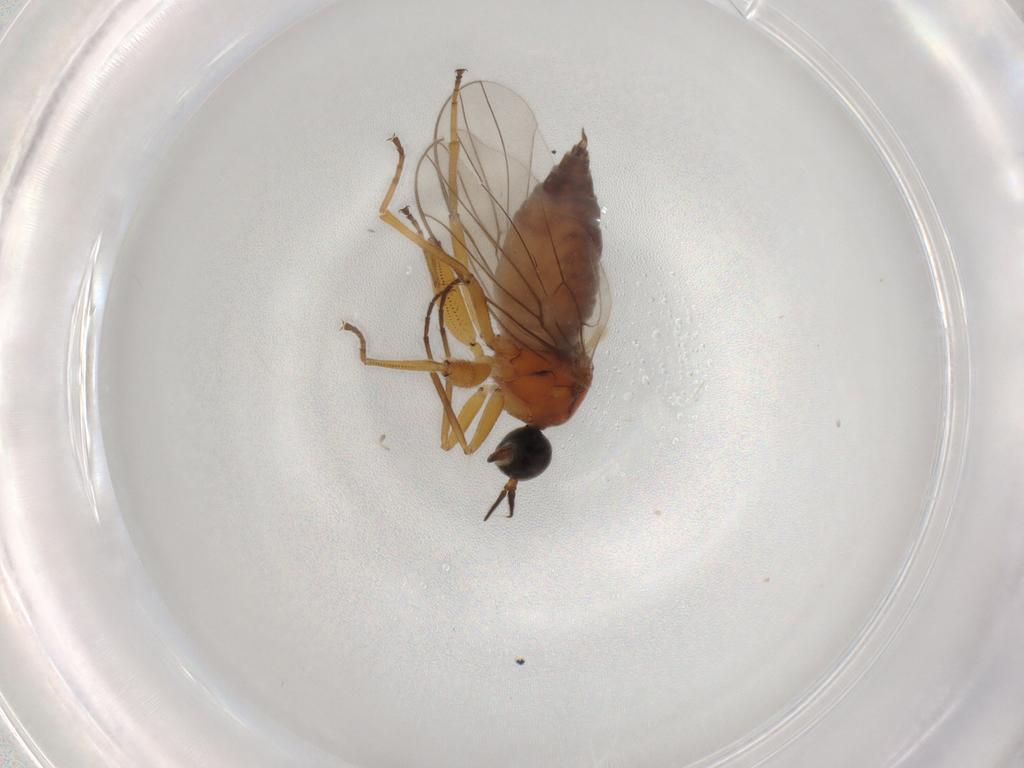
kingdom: Animalia
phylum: Arthropoda
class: Insecta
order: Diptera
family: Hybotidae
